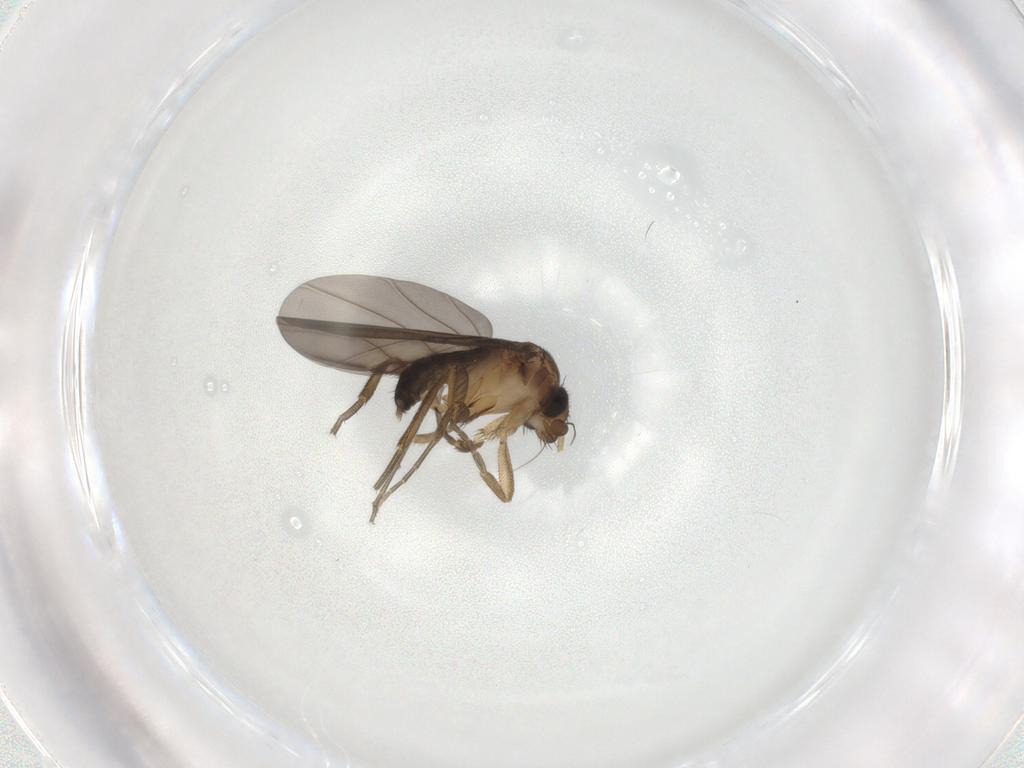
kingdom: Animalia
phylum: Arthropoda
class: Insecta
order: Diptera
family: Phoridae
